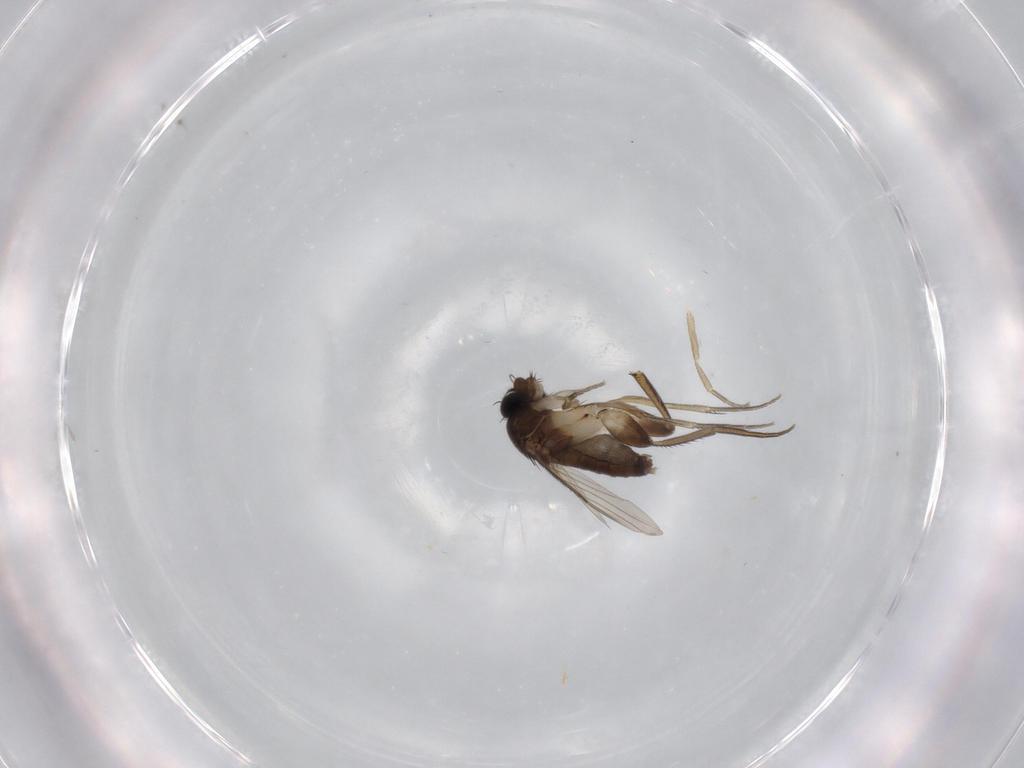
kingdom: Animalia
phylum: Arthropoda
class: Insecta
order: Diptera
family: Phoridae
